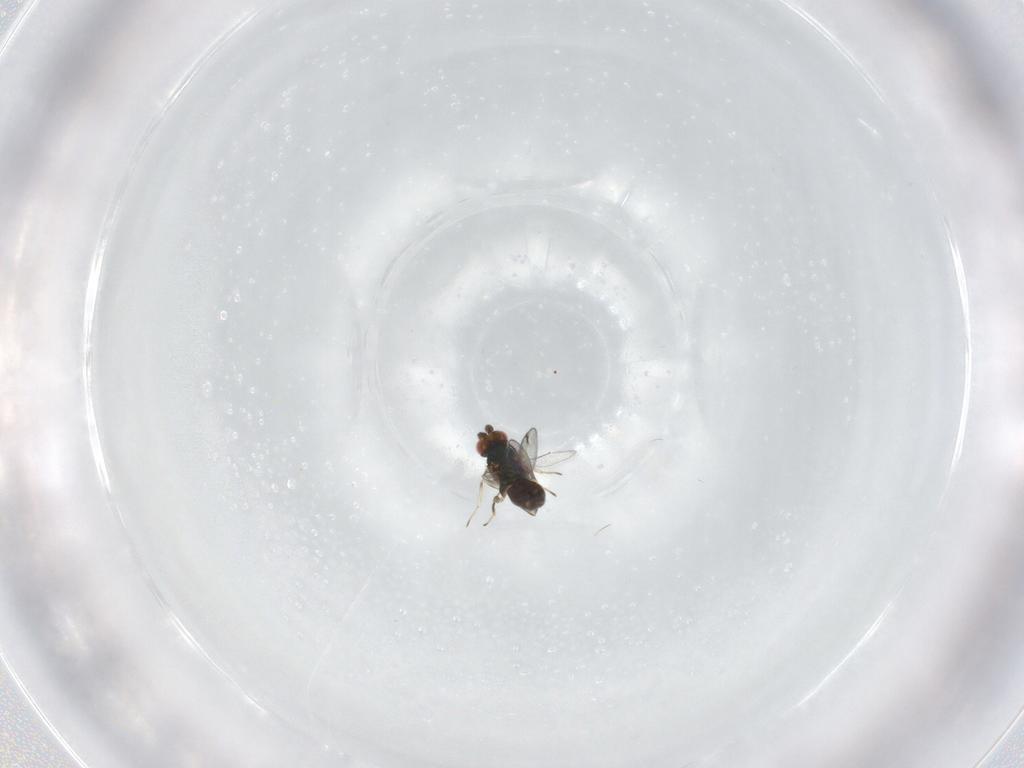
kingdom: Animalia
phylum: Arthropoda
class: Insecta
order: Hymenoptera
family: Eulophidae
